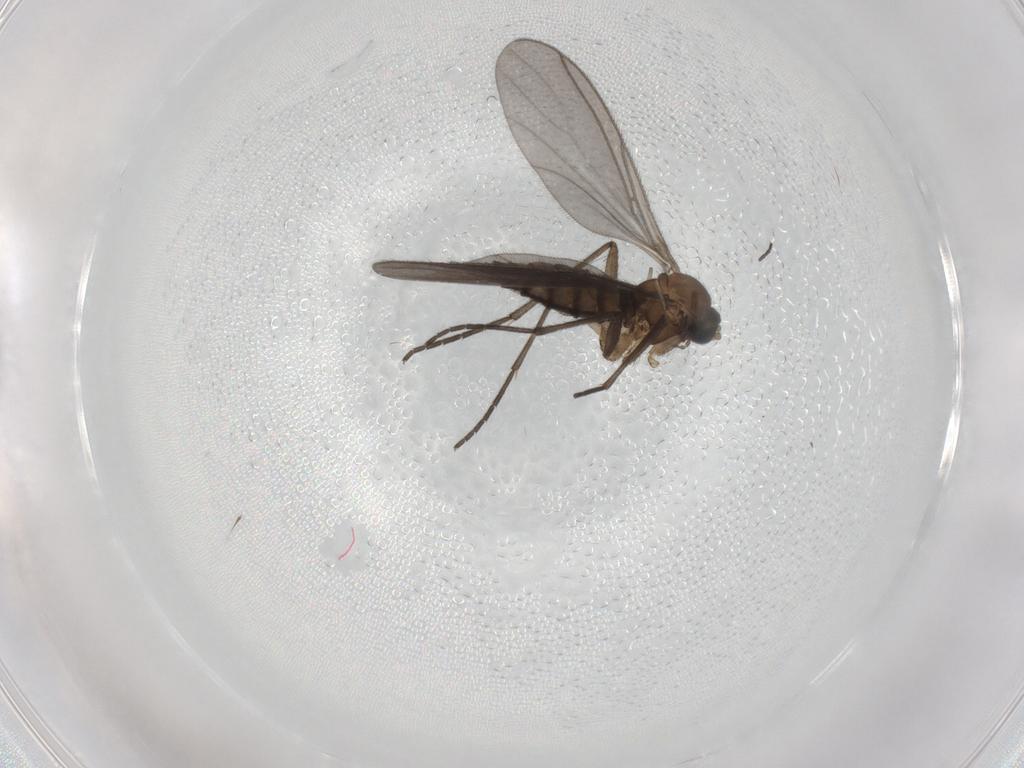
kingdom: Animalia
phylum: Arthropoda
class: Insecta
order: Diptera
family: Sciaridae
